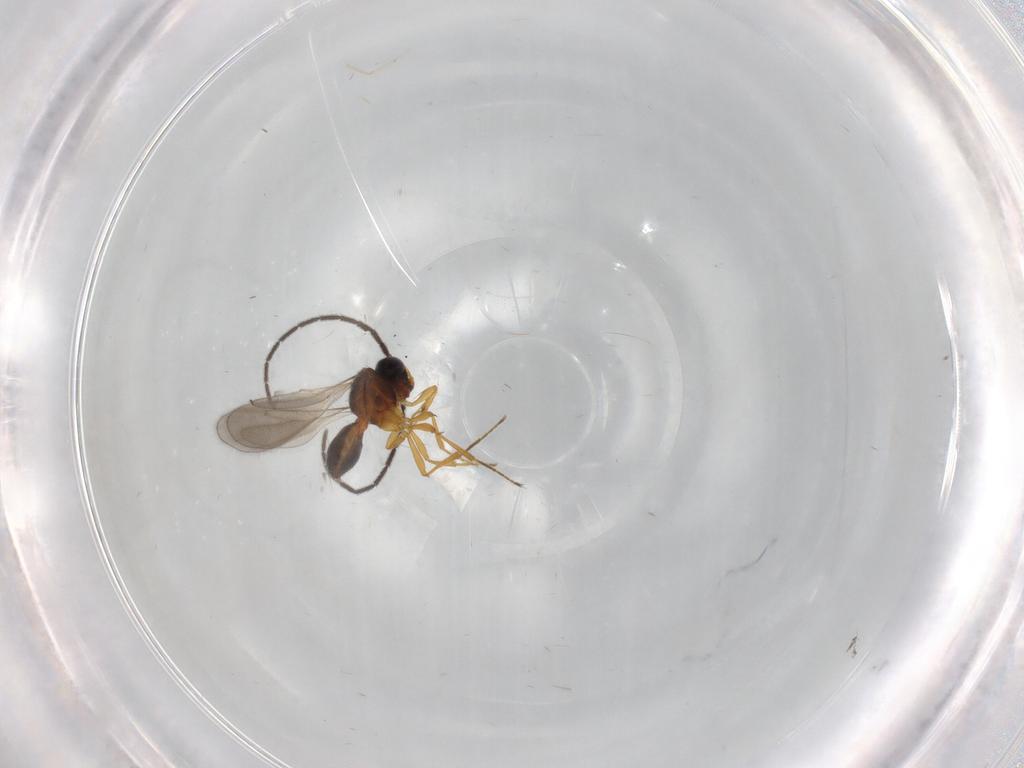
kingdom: Animalia
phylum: Arthropoda
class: Insecta
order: Hymenoptera
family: Scelionidae
